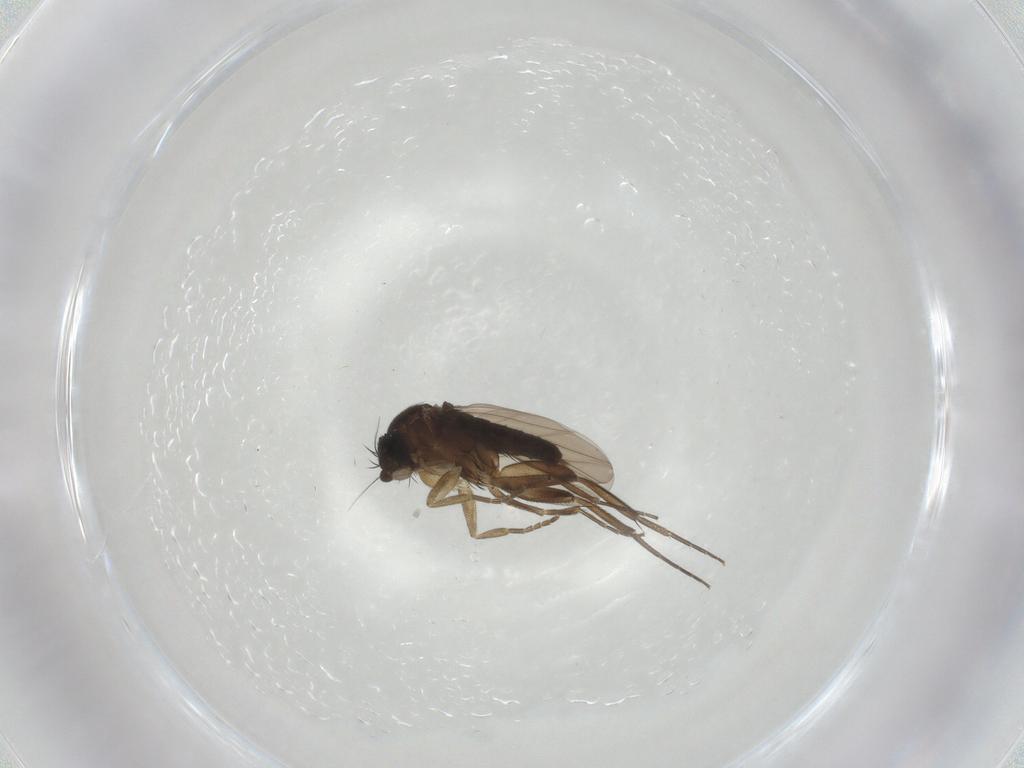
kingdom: Animalia
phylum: Arthropoda
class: Insecta
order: Diptera
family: Phoridae
